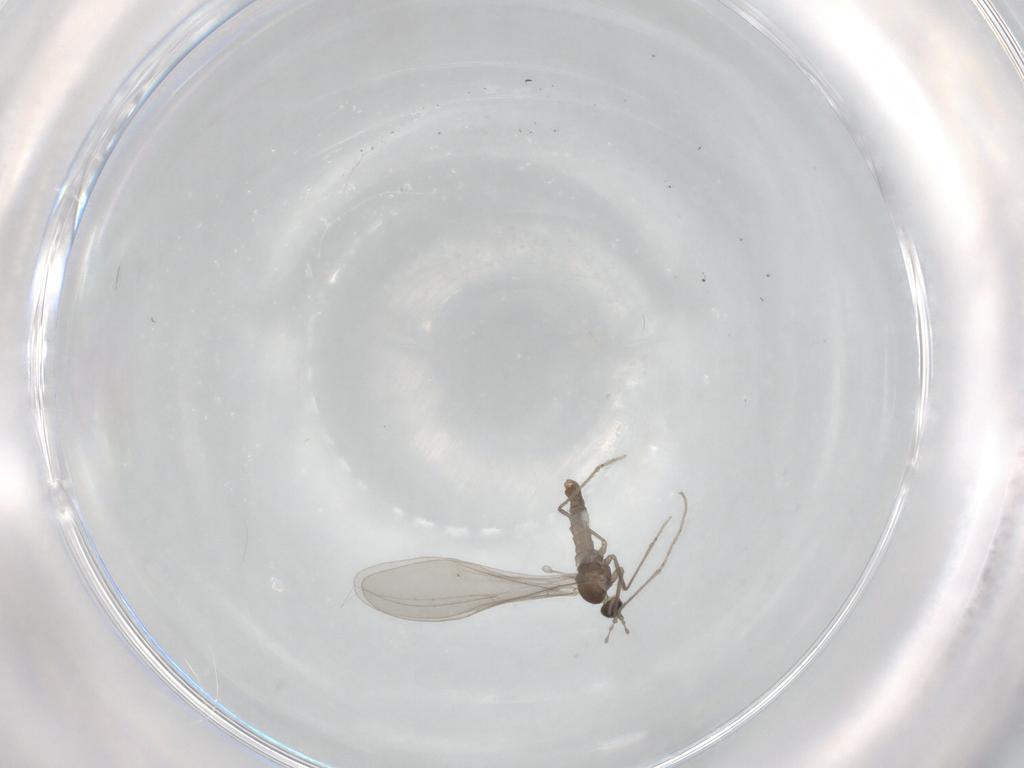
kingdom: Animalia
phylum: Arthropoda
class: Insecta
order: Diptera
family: Cecidomyiidae
